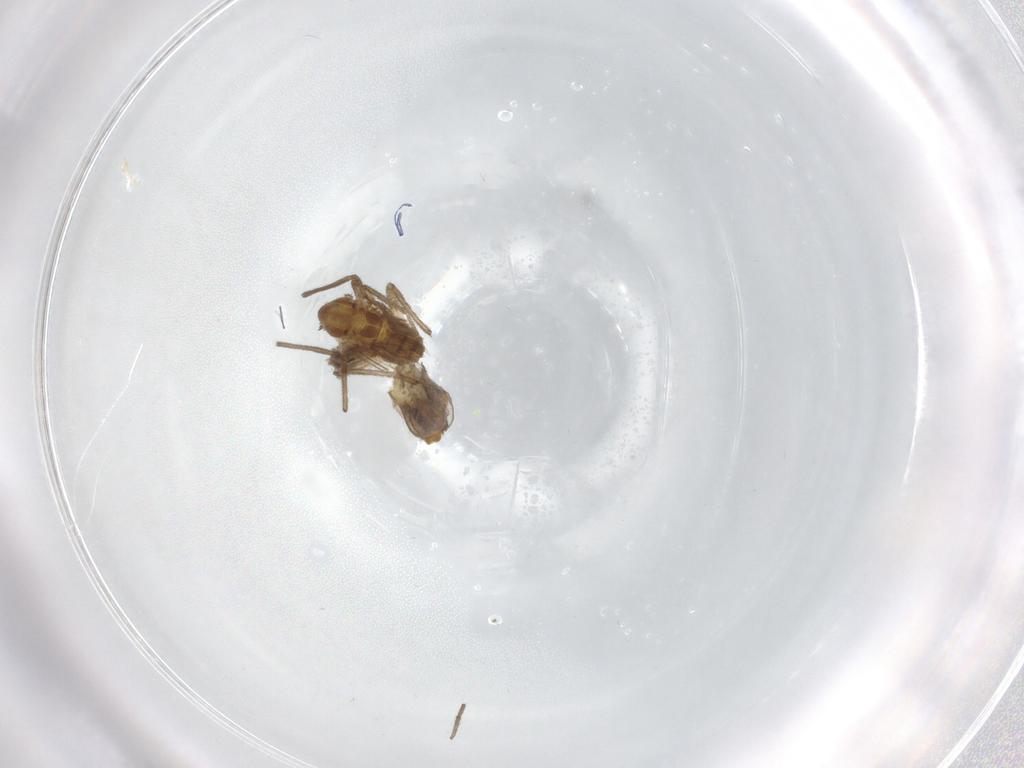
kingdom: Animalia
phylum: Arthropoda
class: Insecta
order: Diptera
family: Chironomidae
